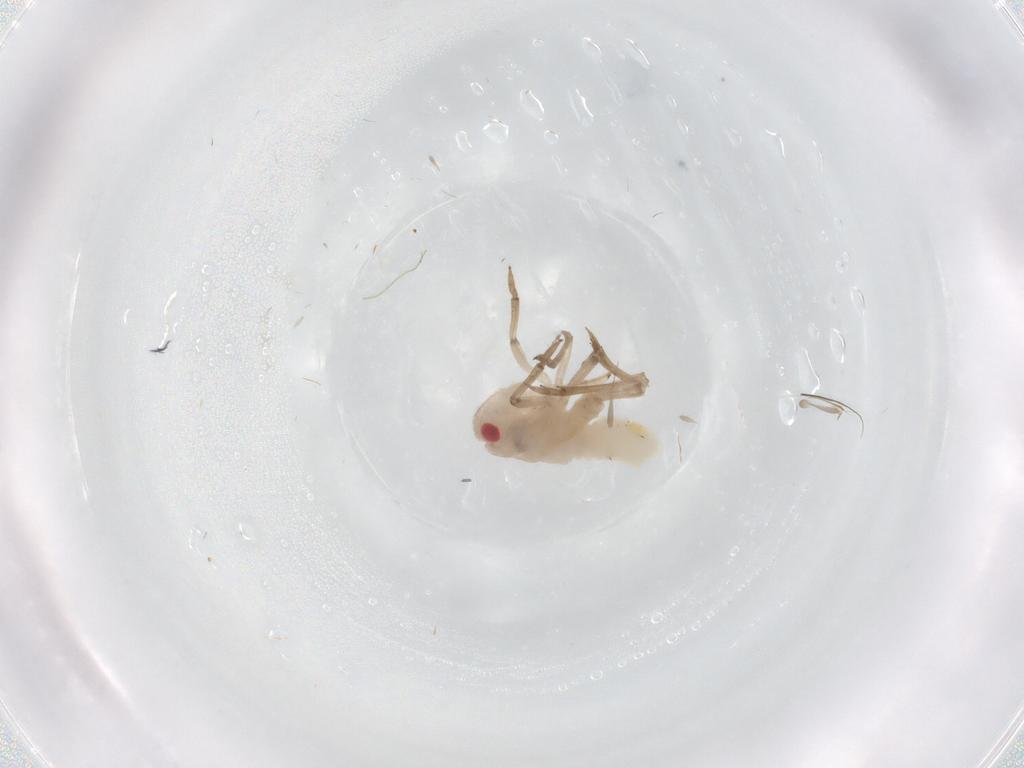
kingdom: Animalia
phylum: Arthropoda
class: Insecta
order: Hemiptera
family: Tropiduchidae
